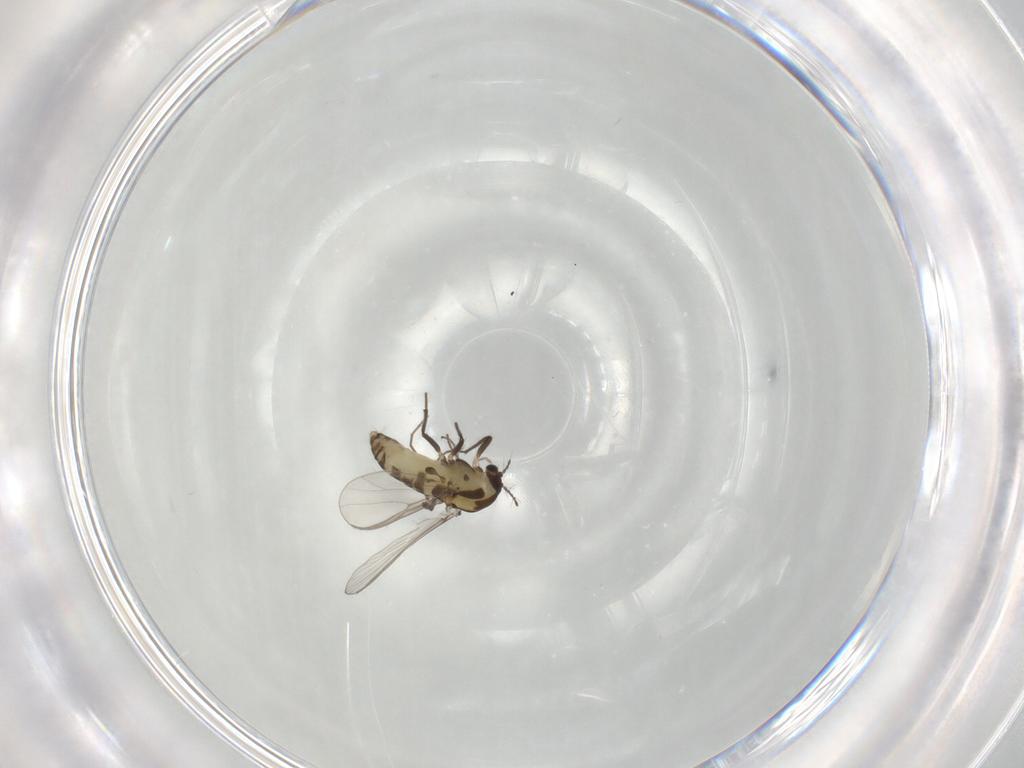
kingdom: Animalia
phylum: Arthropoda
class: Insecta
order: Diptera
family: Chironomidae
